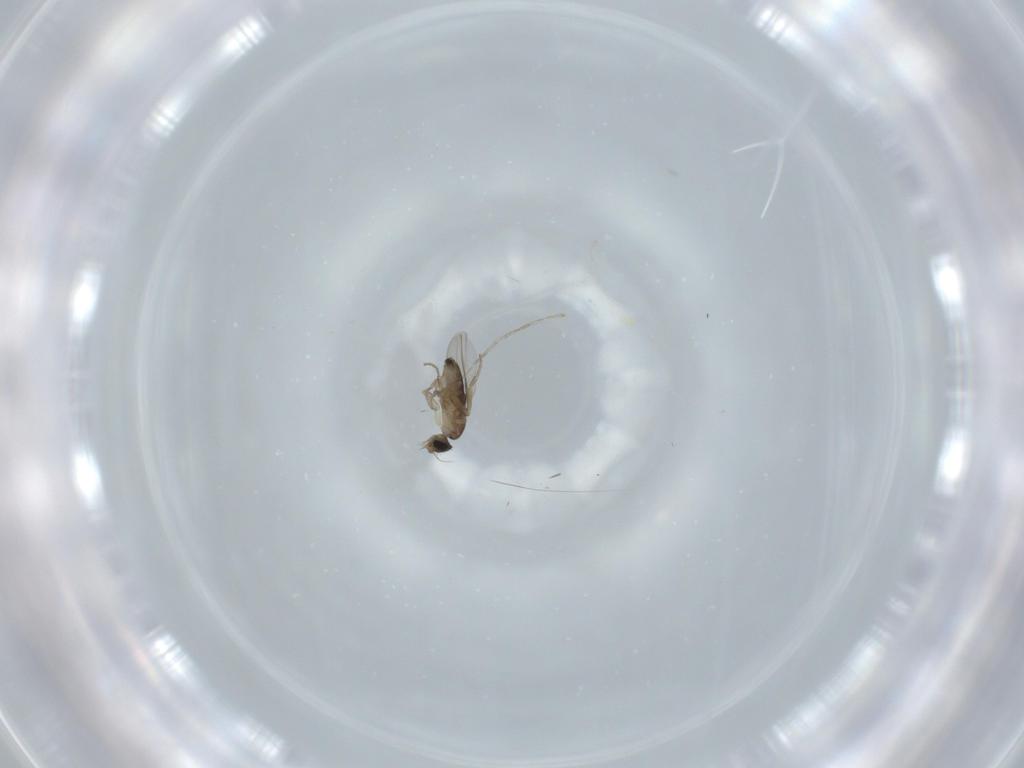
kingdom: Animalia
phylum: Arthropoda
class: Insecta
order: Diptera
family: Phoridae
